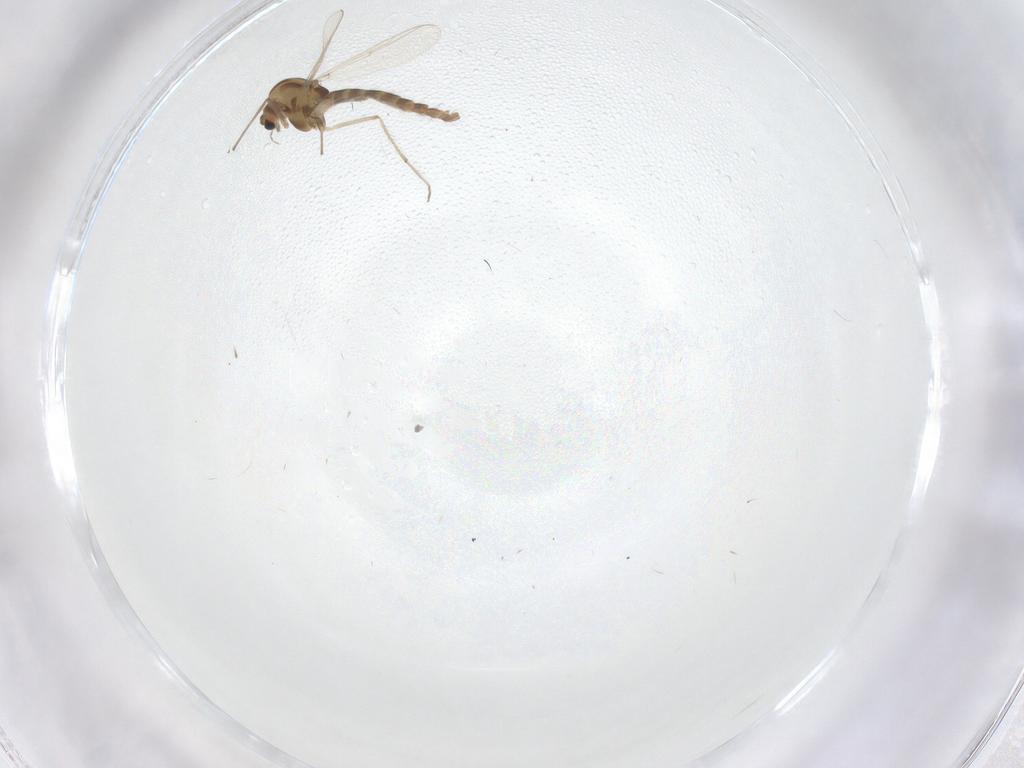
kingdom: Animalia
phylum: Arthropoda
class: Insecta
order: Diptera
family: Chironomidae
